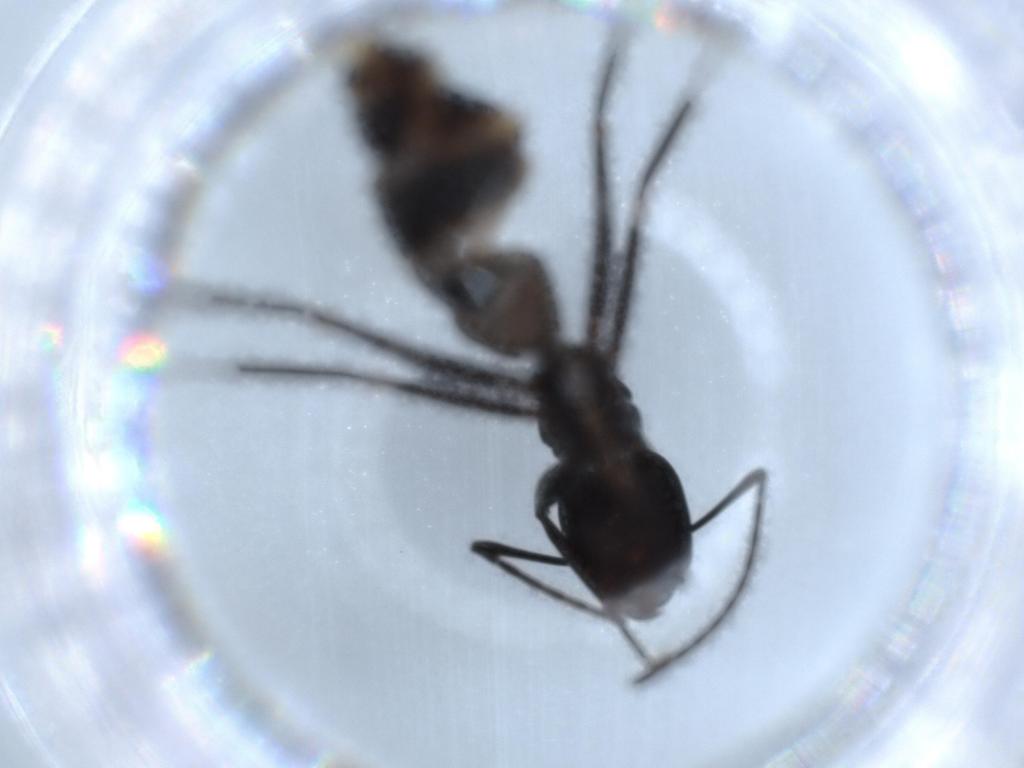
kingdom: Animalia
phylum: Arthropoda
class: Insecta
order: Hymenoptera
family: Formicidae
